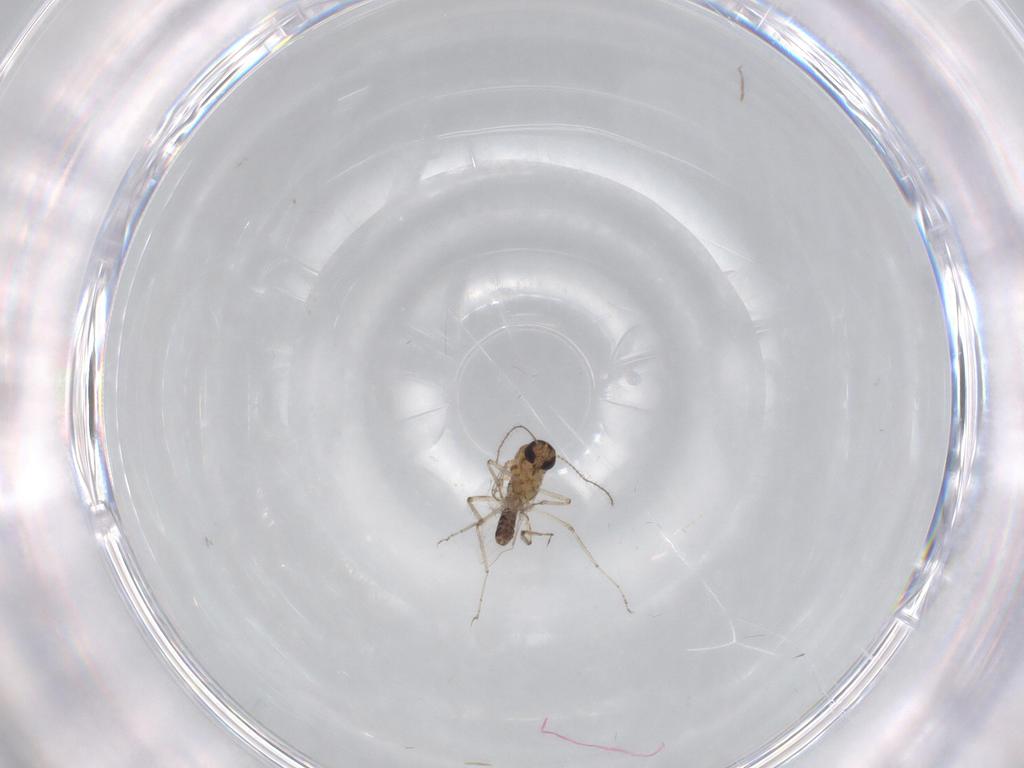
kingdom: Animalia
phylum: Arthropoda
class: Insecta
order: Diptera
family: Ceratopogonidae
